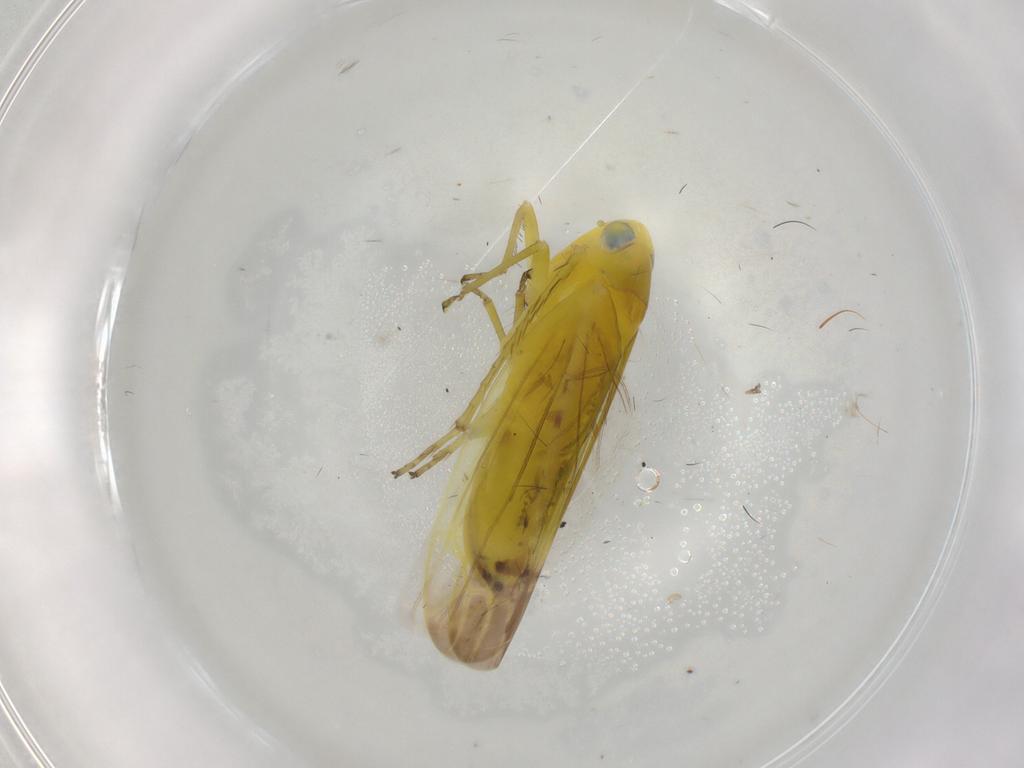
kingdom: Animalia
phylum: Arthropoda
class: Insecta
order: Hemiptera
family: Cicadellidae
